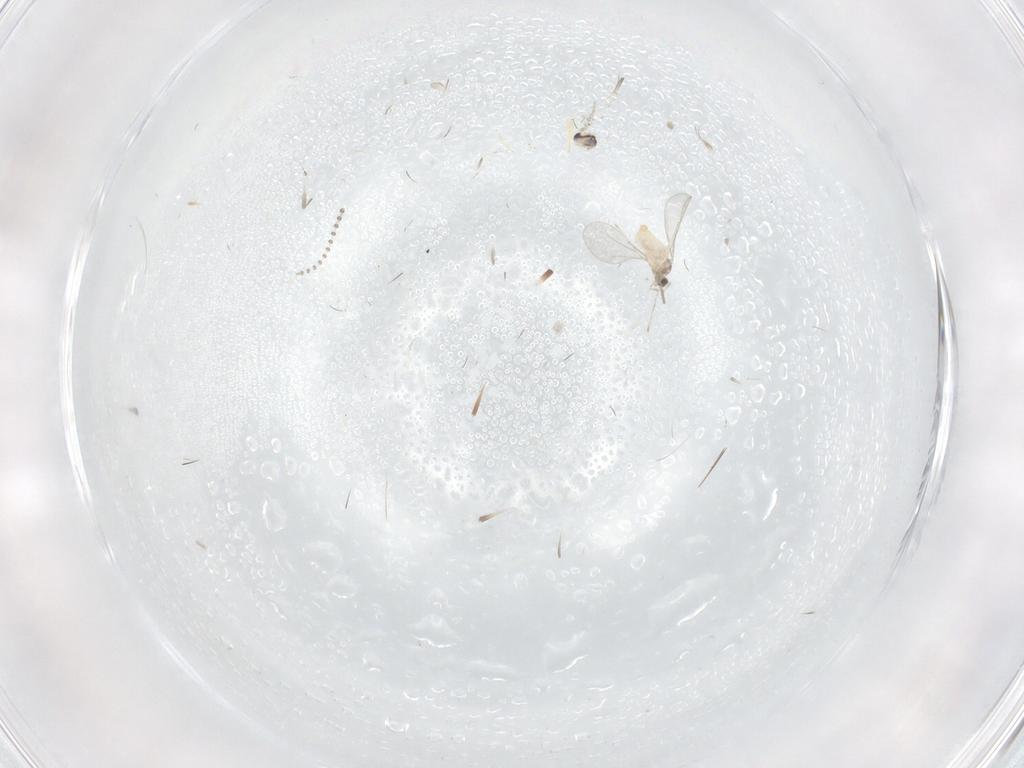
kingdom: Animalia
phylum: Arthropoda
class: Insecta
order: Diptera
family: Cecidomyiidae
